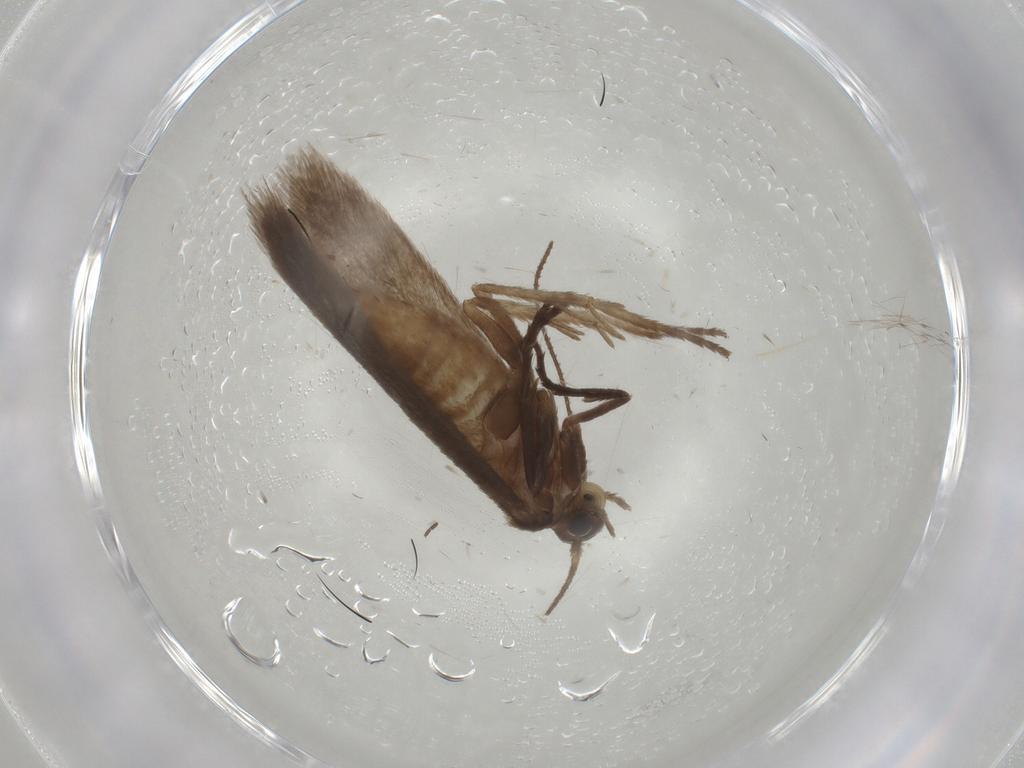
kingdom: Animalia
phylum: Arthropoda
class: Insecta
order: Lepidoptera
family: Limacodidae
